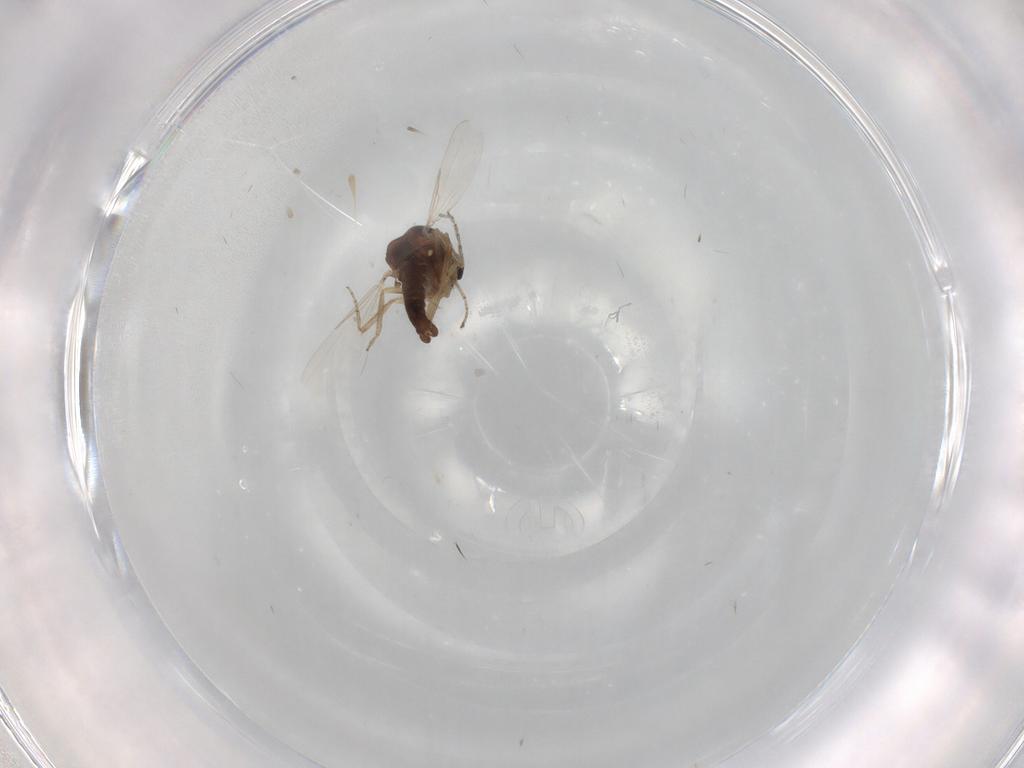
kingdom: Animalia
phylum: Arthropoda
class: Insecta
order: Diptera
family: Ceratopogonidae
